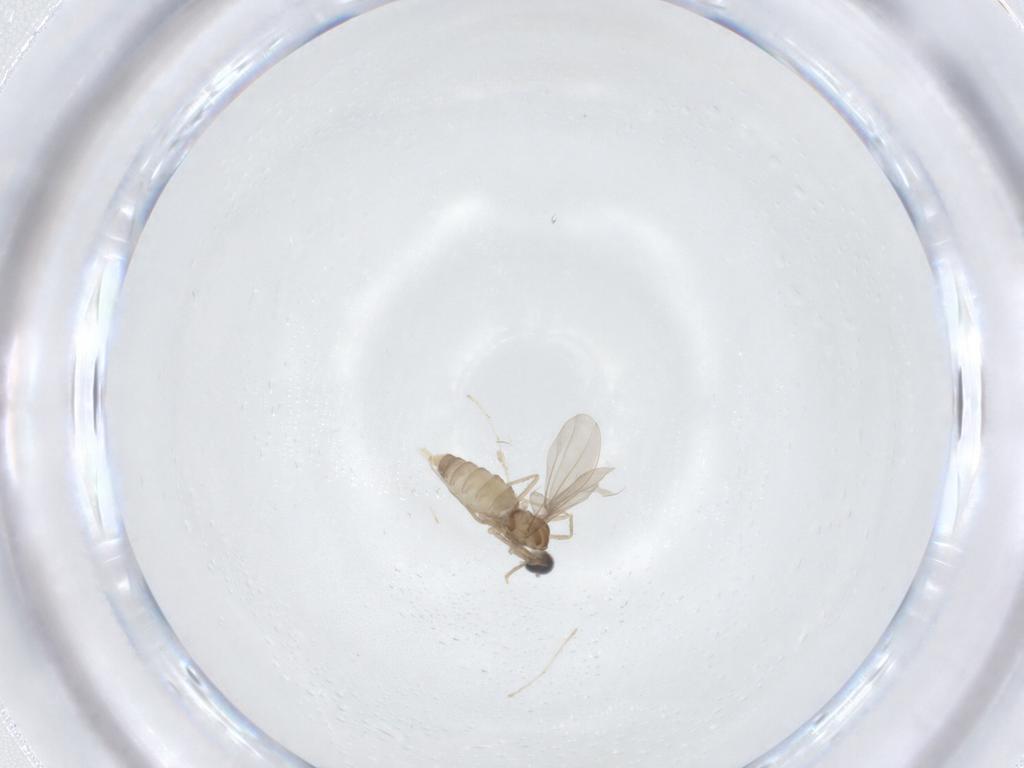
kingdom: Animalia
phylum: Arthropoda
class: Insecta
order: Diptera
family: Cecidomyiidae
